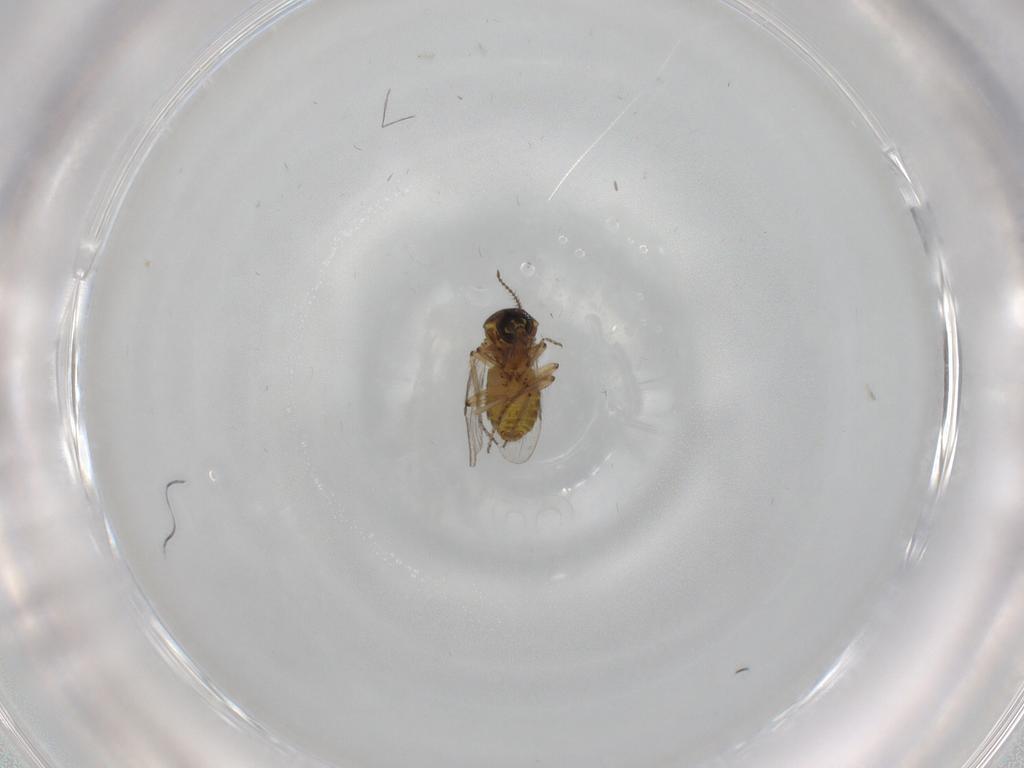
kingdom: Animalia
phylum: Arthropoda
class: Insecta
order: Diptera
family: Ceratopogonidae
